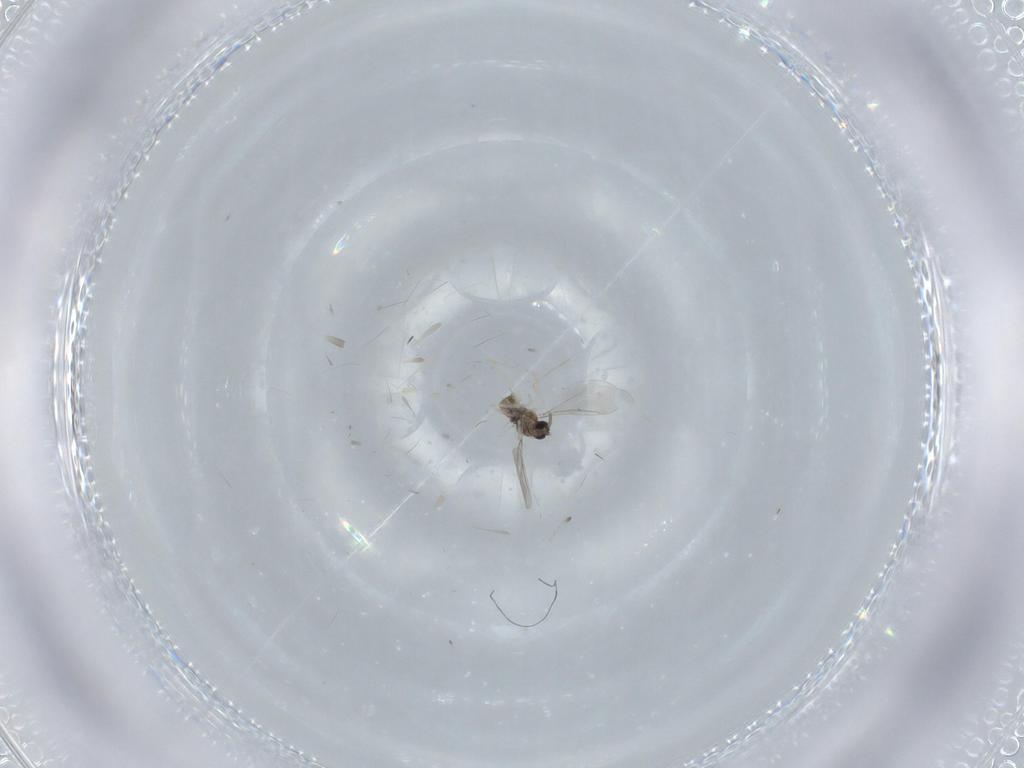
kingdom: Animalia
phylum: Arthropoda
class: Insecta
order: Diptera
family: Cecidomyiidae
